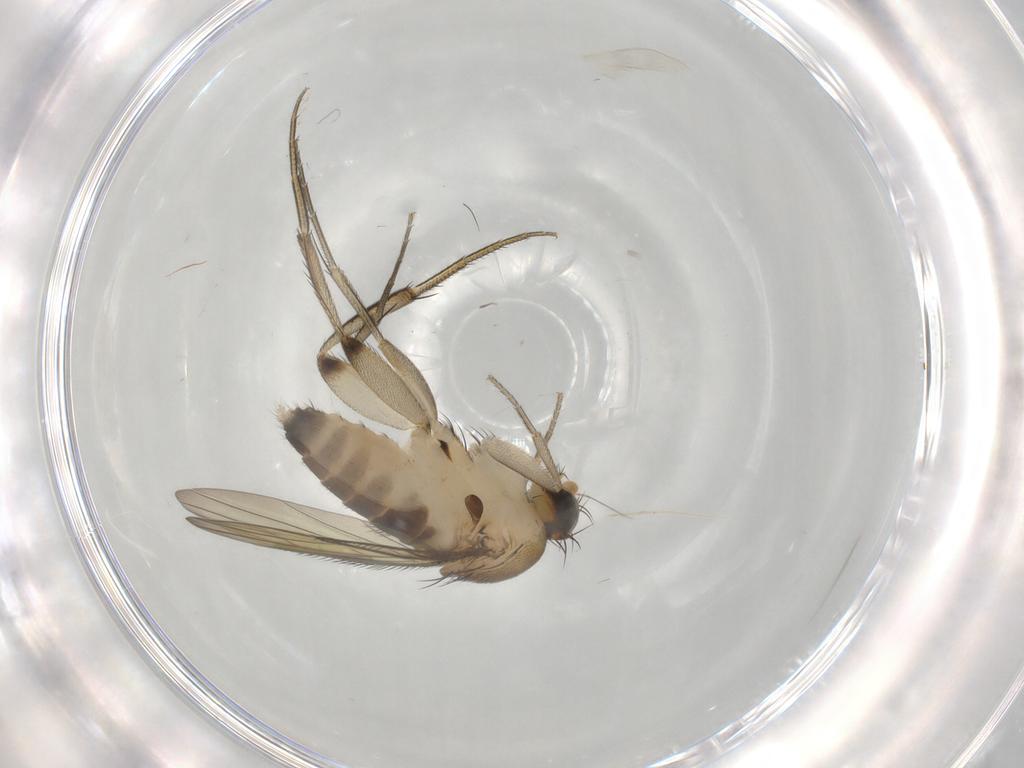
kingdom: Animalia
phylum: Arthropoda
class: Insecta
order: Diptera
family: Phoridae
